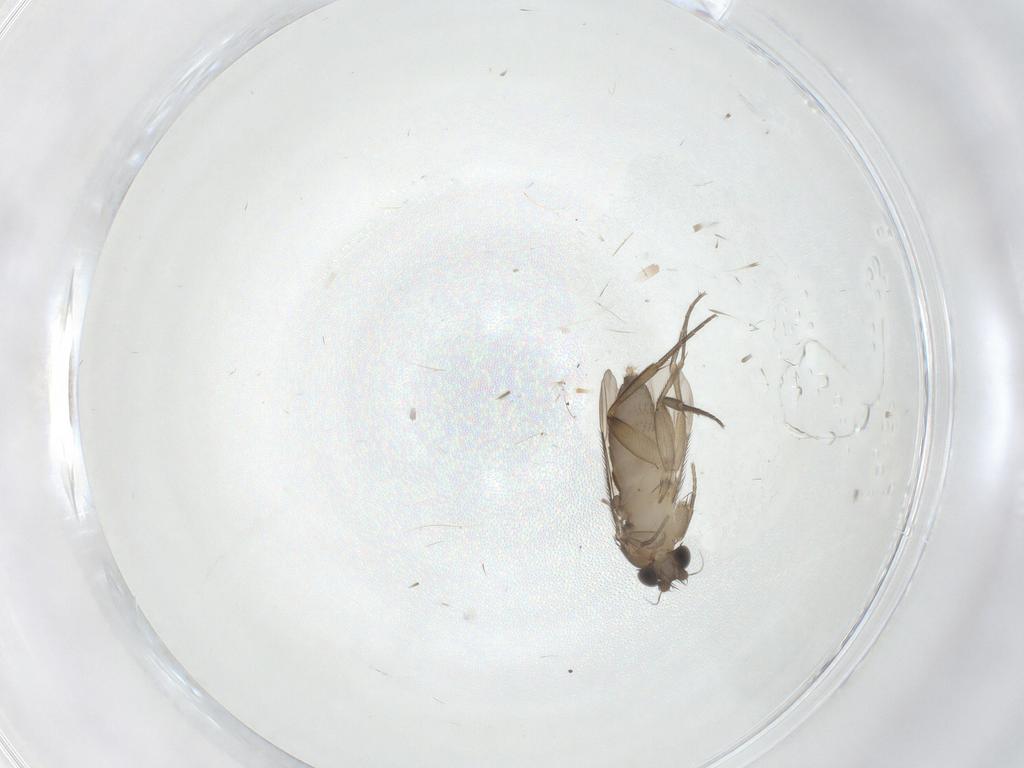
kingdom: Animalia
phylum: Arthropoda
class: Insecta
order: Diptera
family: Phoridae
